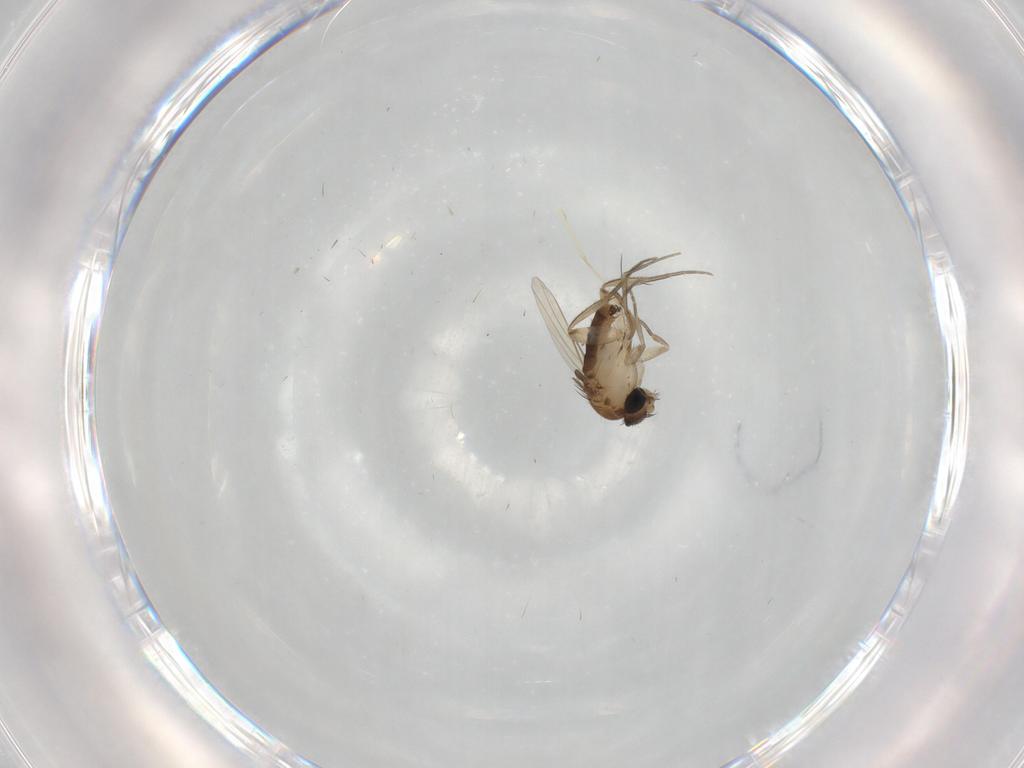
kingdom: Animalia
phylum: Arthropoda
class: Insecta
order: Diptera
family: Phoridae
